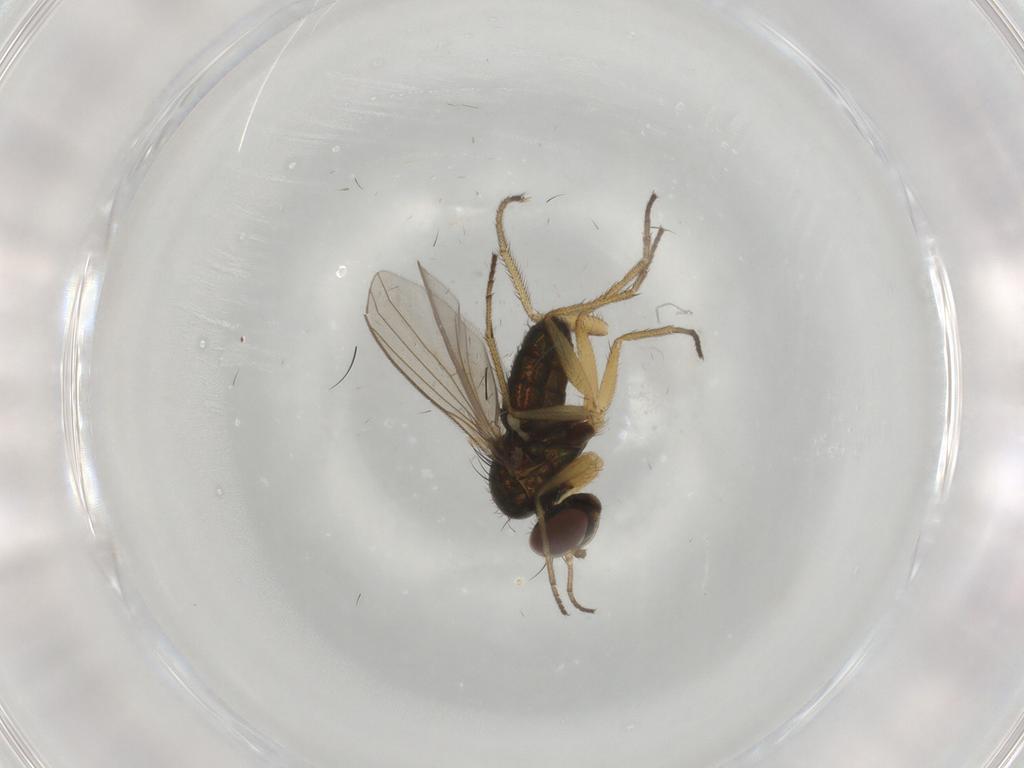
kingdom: Animalia
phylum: Arthropoda
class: Insecta
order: Diptera
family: Dolichopodidae
